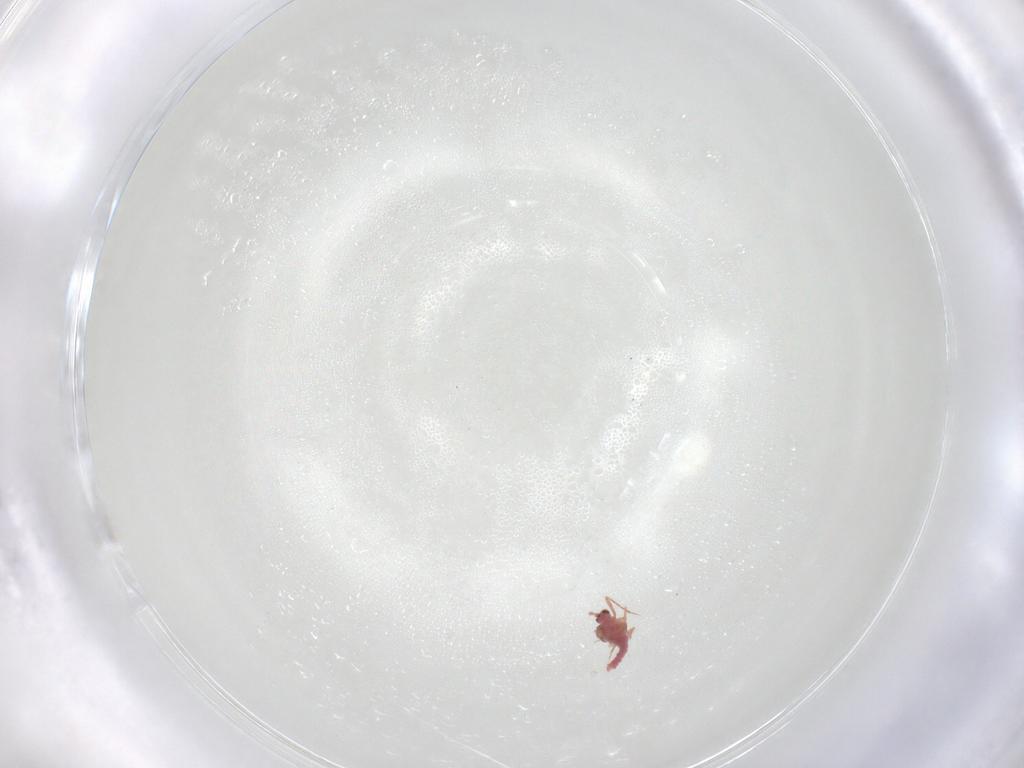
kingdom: Animalia
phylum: Arthropoda
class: Insecta
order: Hemiptera
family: Coccoidea_incertae_sedis
